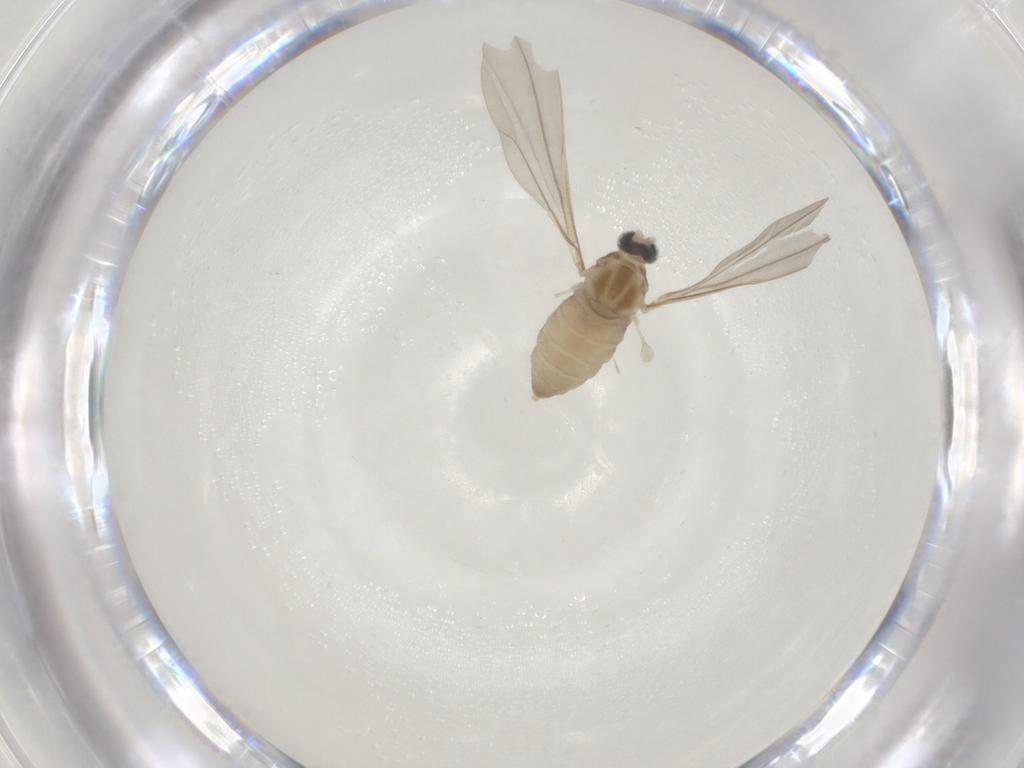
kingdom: Animalia
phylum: Arthropoda
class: Insecta
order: Diptera
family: Cecidomyiidae
